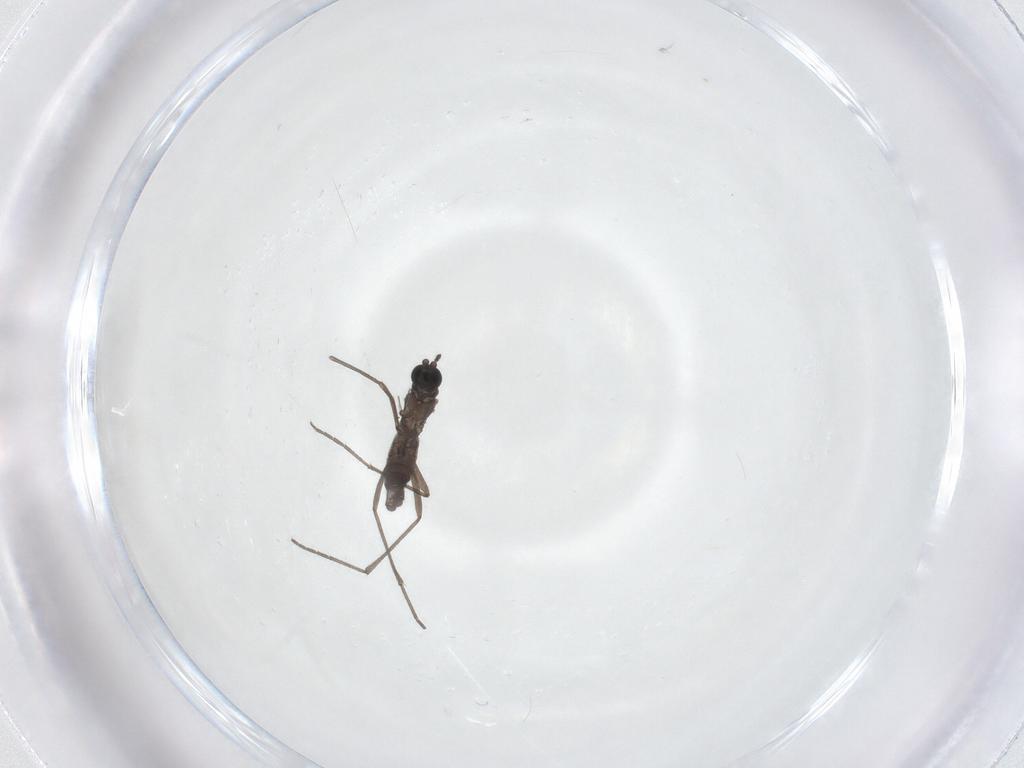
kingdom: Animalia
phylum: Arthropoda
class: Insecta
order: Diptera
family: Sciaridae
